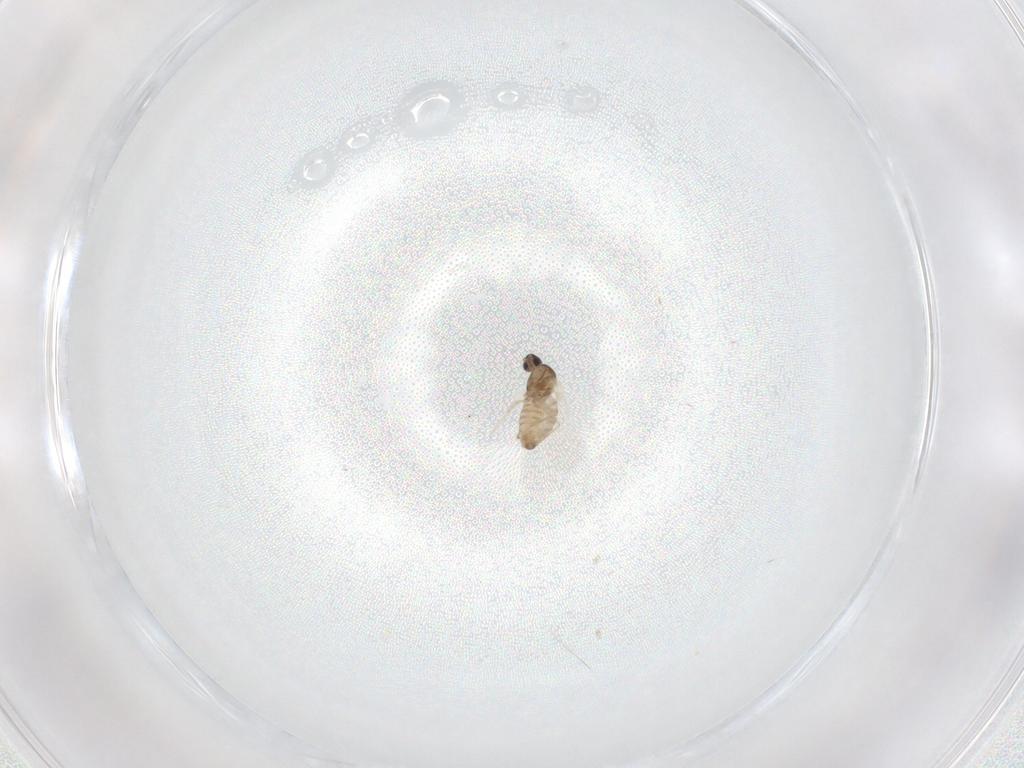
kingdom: Animalia
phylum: Arthropoda
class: Insecta
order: Diptera
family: Cecidomyiidae
